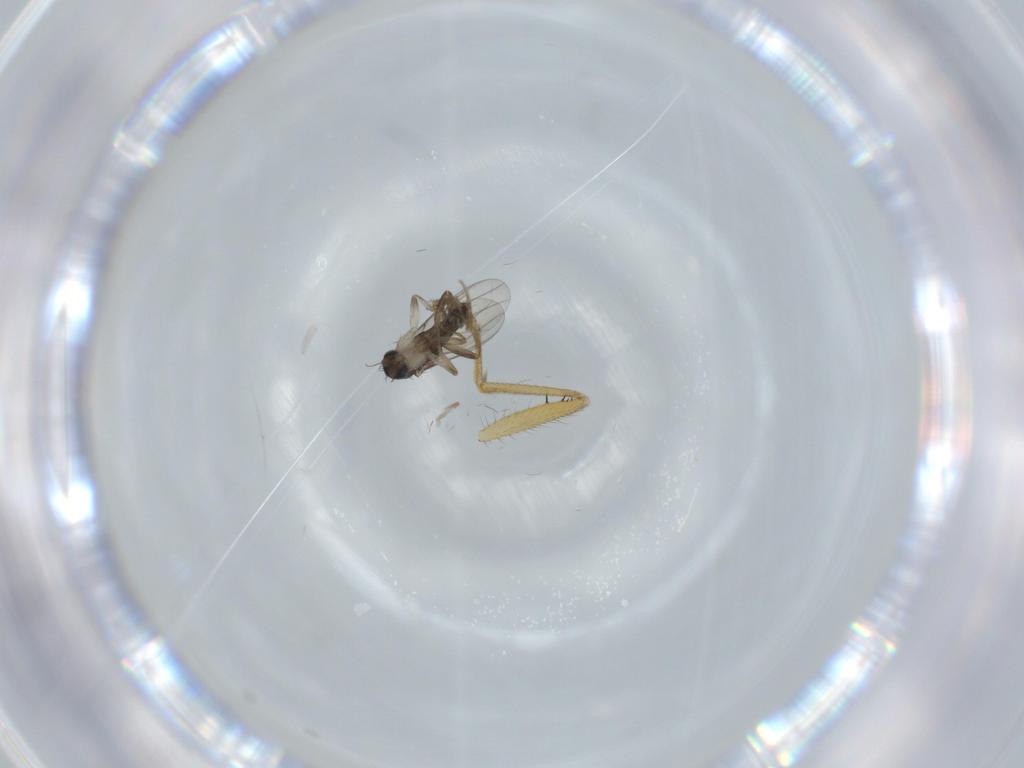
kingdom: Animalia
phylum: Arthropoda
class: Insecta
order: Diptera
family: Phoridae
